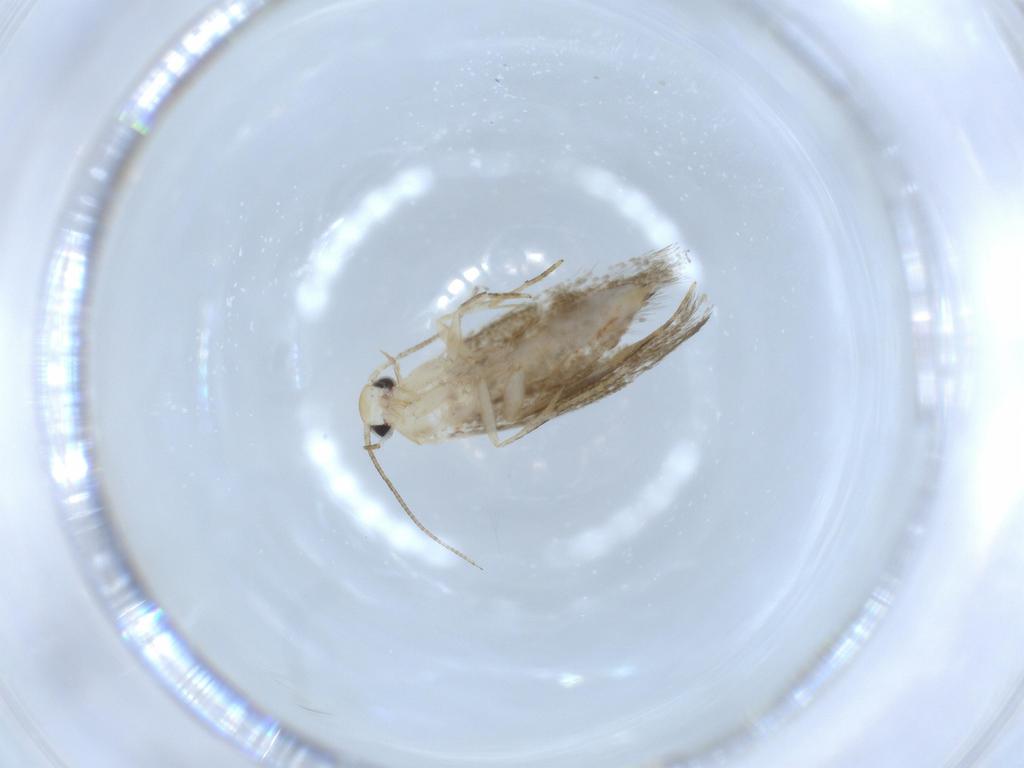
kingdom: Animalia
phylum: Arthropoda
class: Insecta
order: Lepidoptera
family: Tineidae
